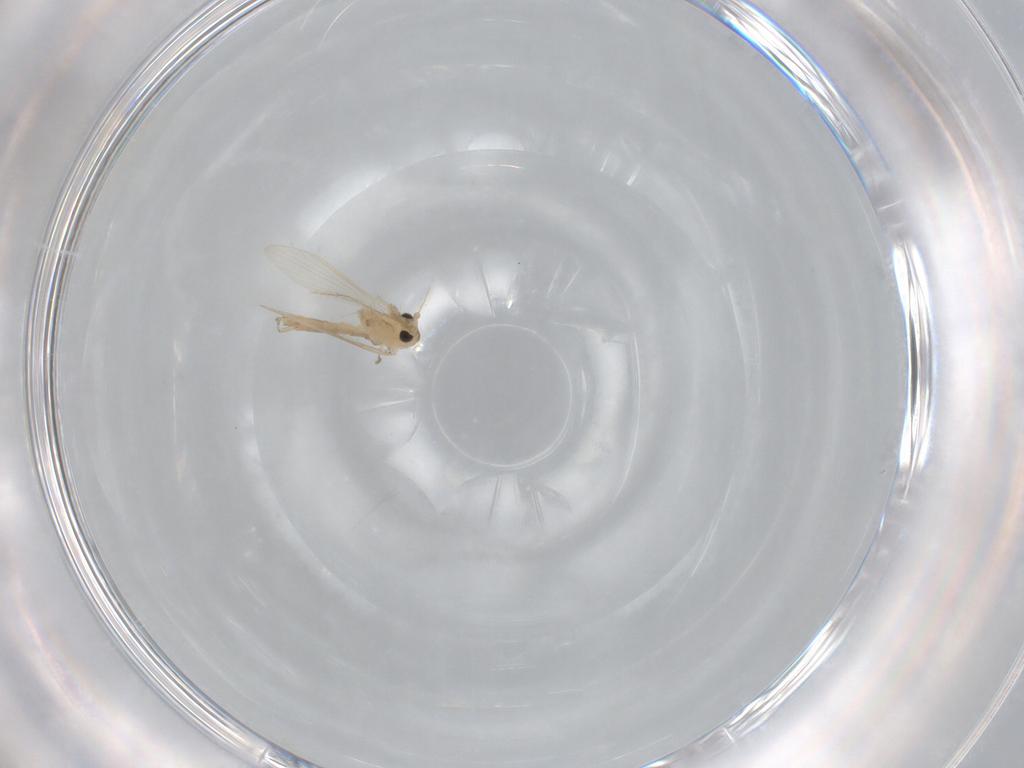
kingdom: Animalia
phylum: Arthropoda
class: Insecta
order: Diptera
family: Psychodidae
